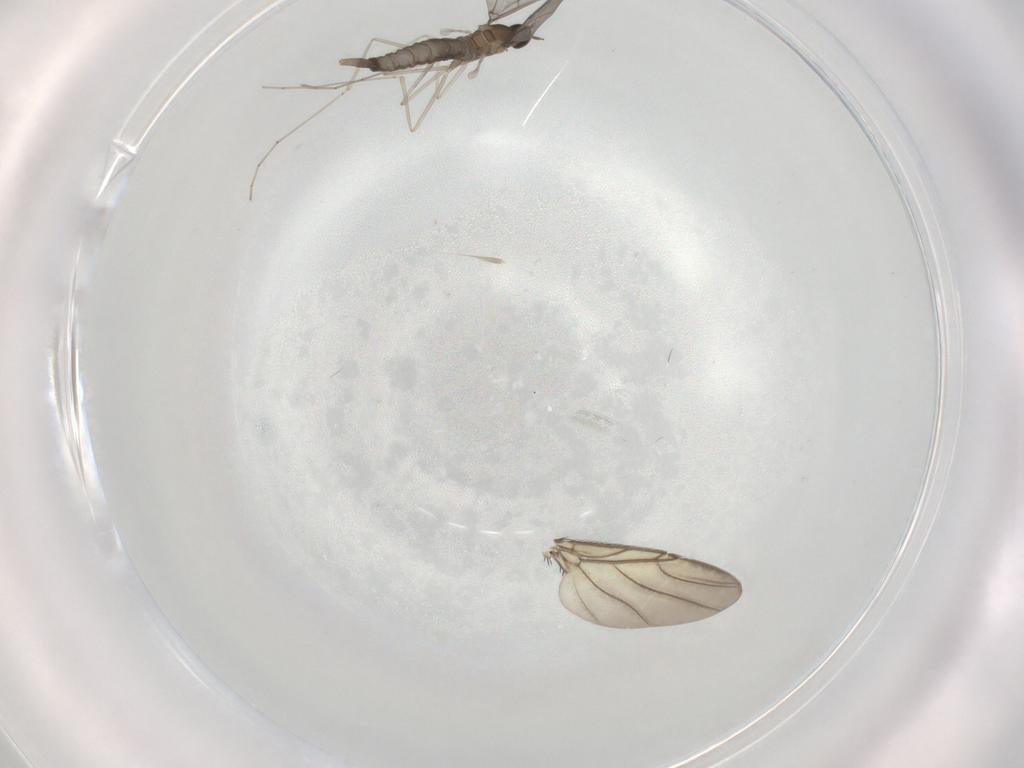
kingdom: Animalia
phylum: Arthropoda
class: Insecta
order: Diptera
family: Cecidomyiidae
